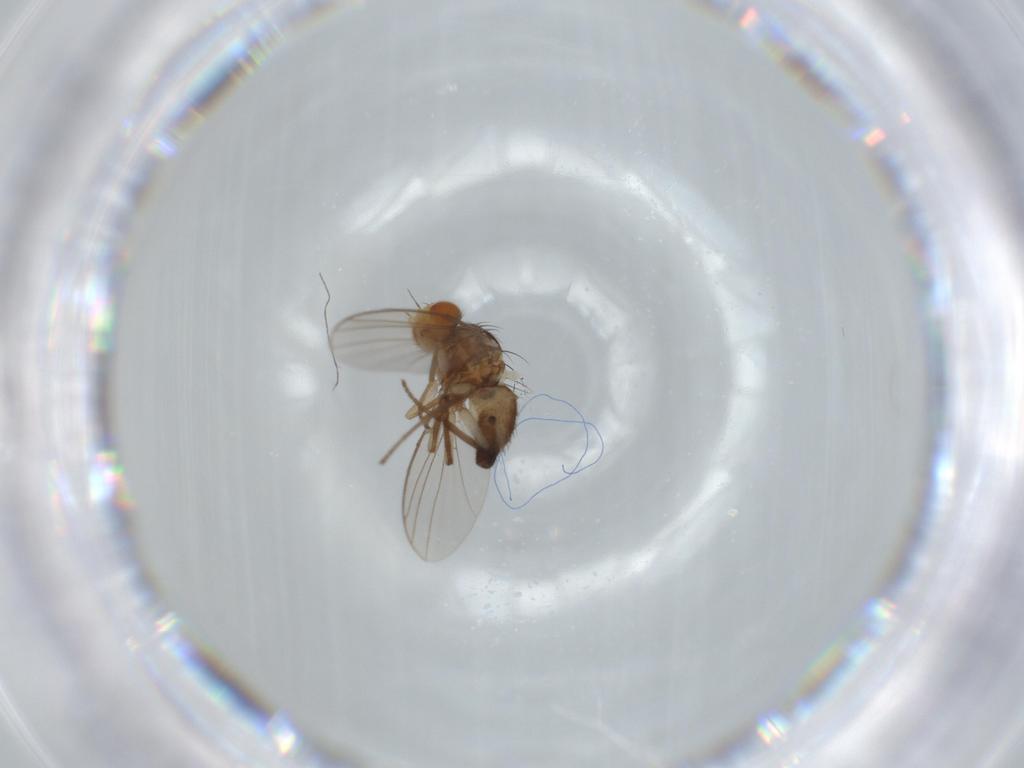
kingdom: Animalia
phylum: Arthropoda
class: Insecta
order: Diptera
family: Agromyzidae
